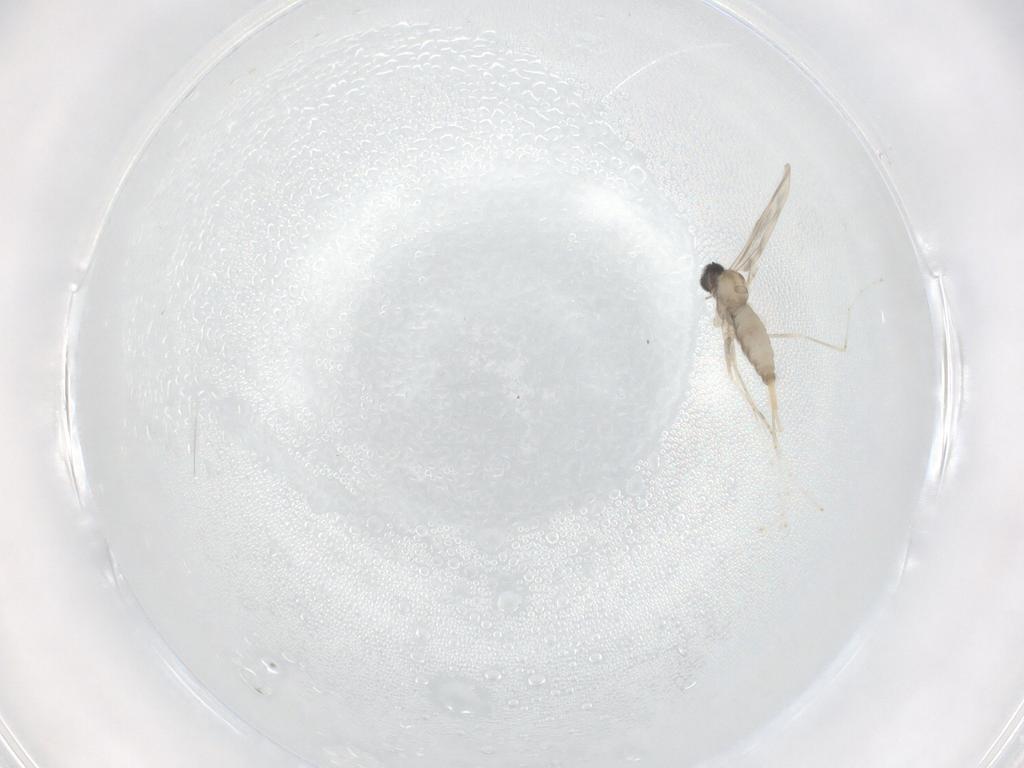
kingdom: Animalia
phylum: Arthropoda
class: Insecta
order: Diptera
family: Cecidomyiidae
